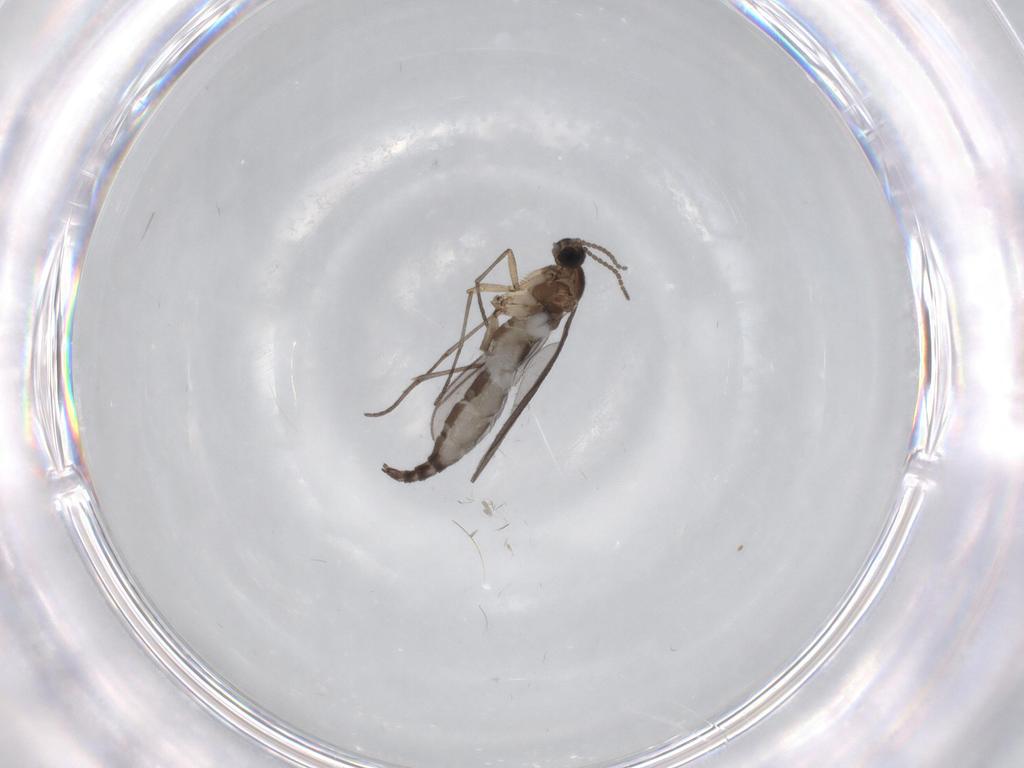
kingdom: Animalia
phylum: Arthropoda
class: Insecta
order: Diptera
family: Sciaridae
